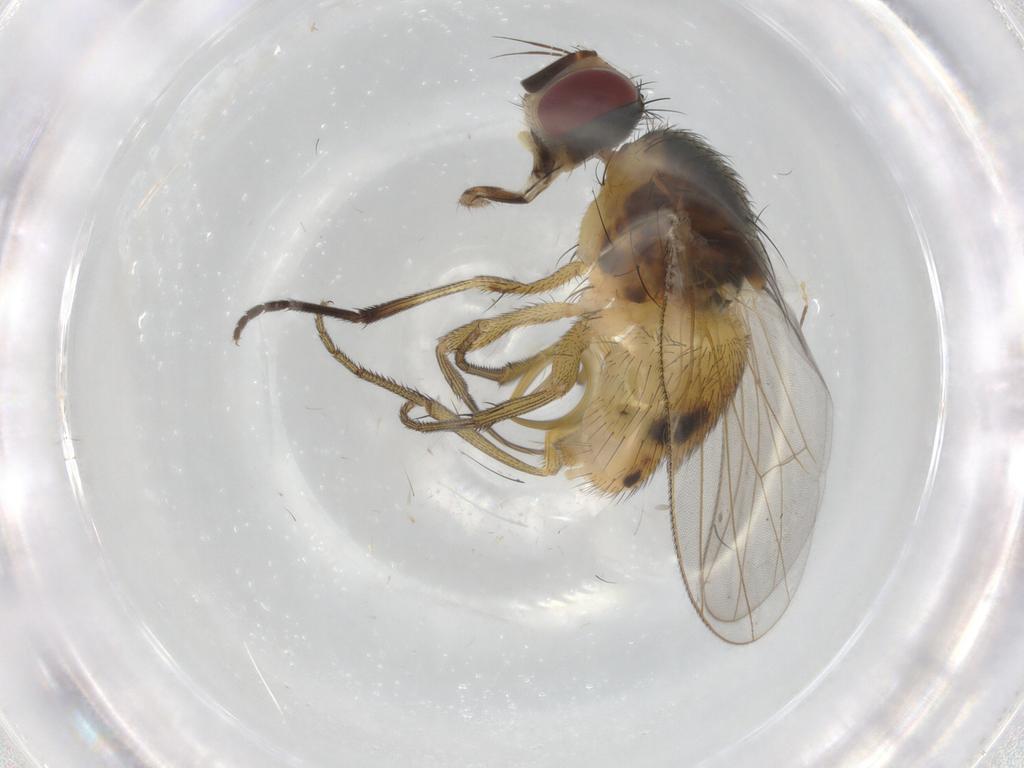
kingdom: Animalia
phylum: Arthropoda
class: Insecta
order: Diptera
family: Muscidae
